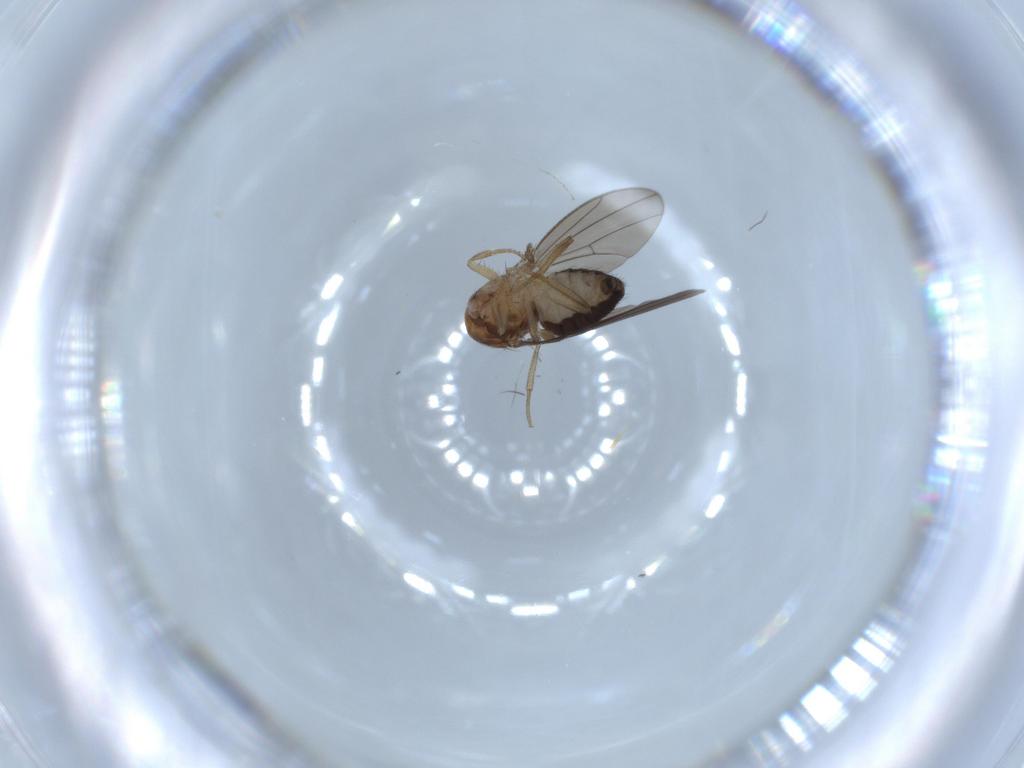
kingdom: Animalia
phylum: Arthropoda
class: Insecta
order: Diptera
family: Drosophilidae
